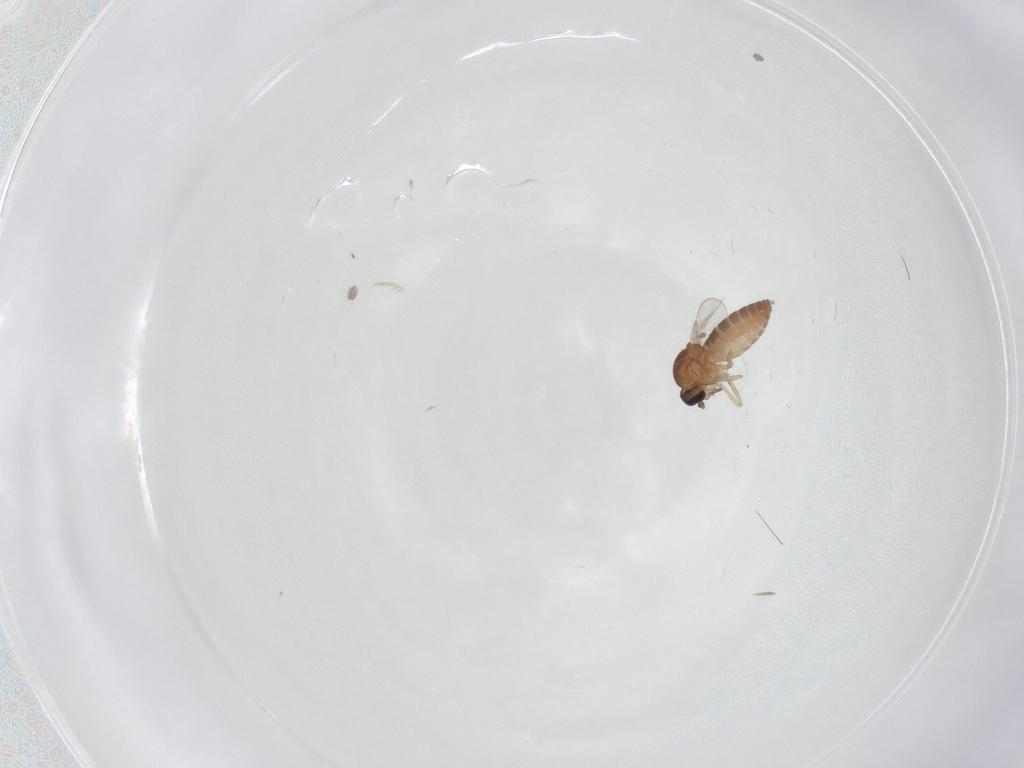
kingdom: Animalia
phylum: Arthropoda
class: Insecta
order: Diptera
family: Ceratopogonidae
